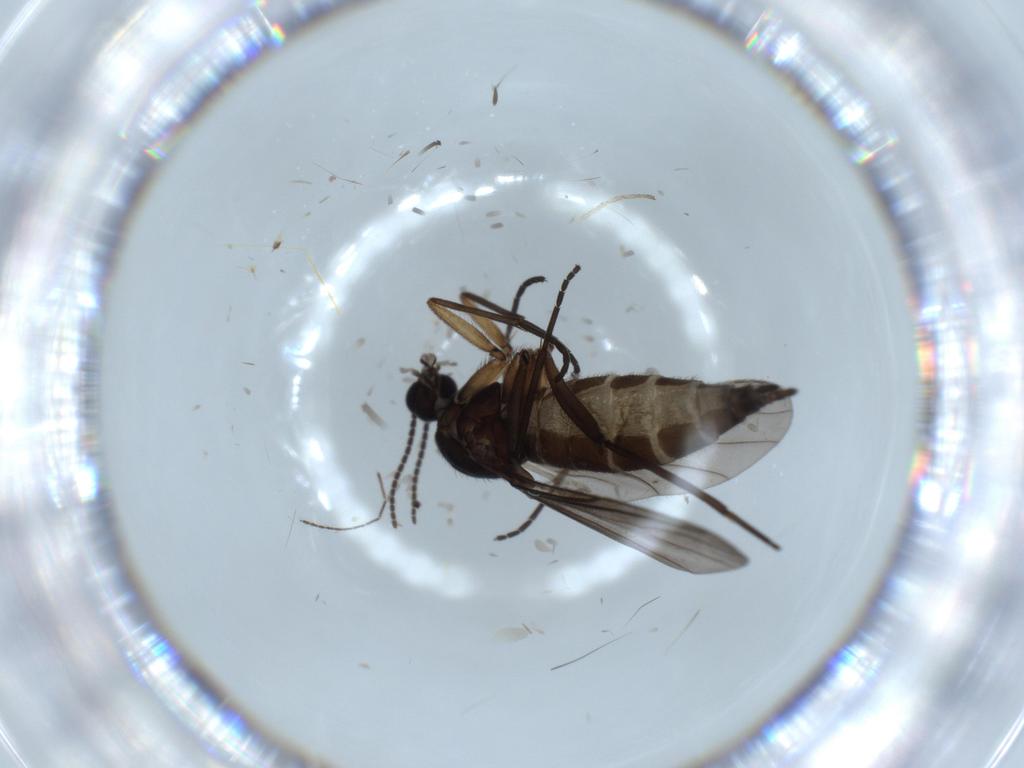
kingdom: Animalia
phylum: Arthropoda
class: Insecta
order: Diptera
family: Sciaridae
